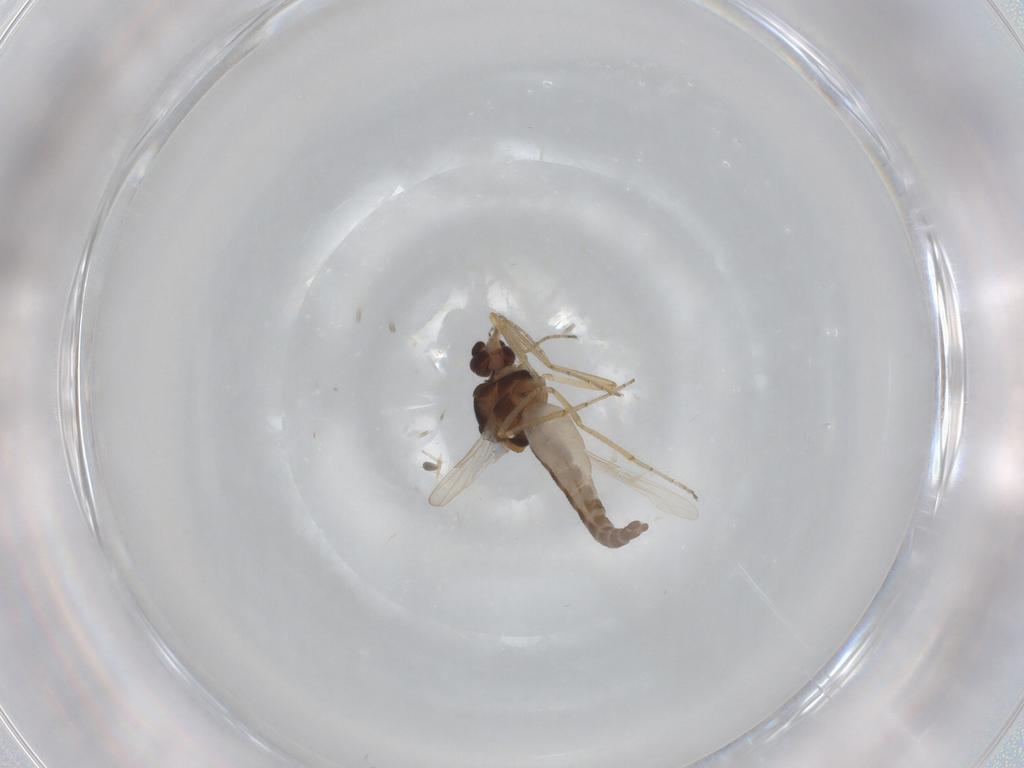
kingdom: Animalia
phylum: Arthropoda
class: Insecta
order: Diptera
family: Ceratopogonidae
